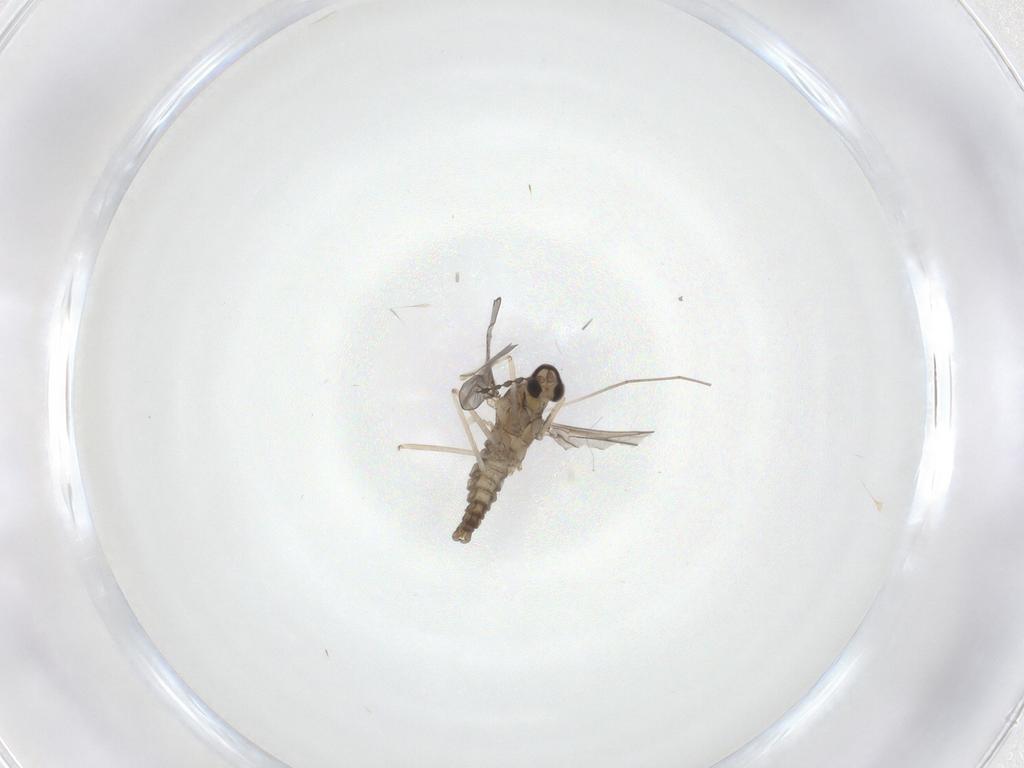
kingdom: Animalia
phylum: Arthropoda
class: Insecta
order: Diptera
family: Cecidomyiidae
